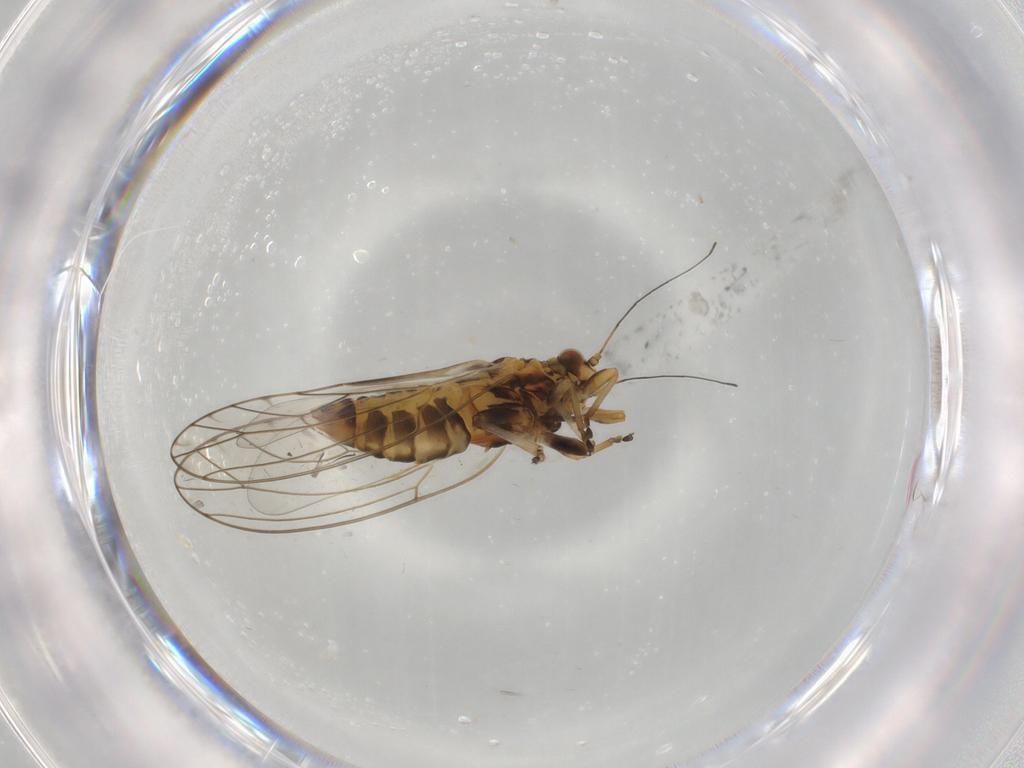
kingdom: Animalia
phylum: Arthropoda
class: Insecta
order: Hemiptera
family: Triozidae
